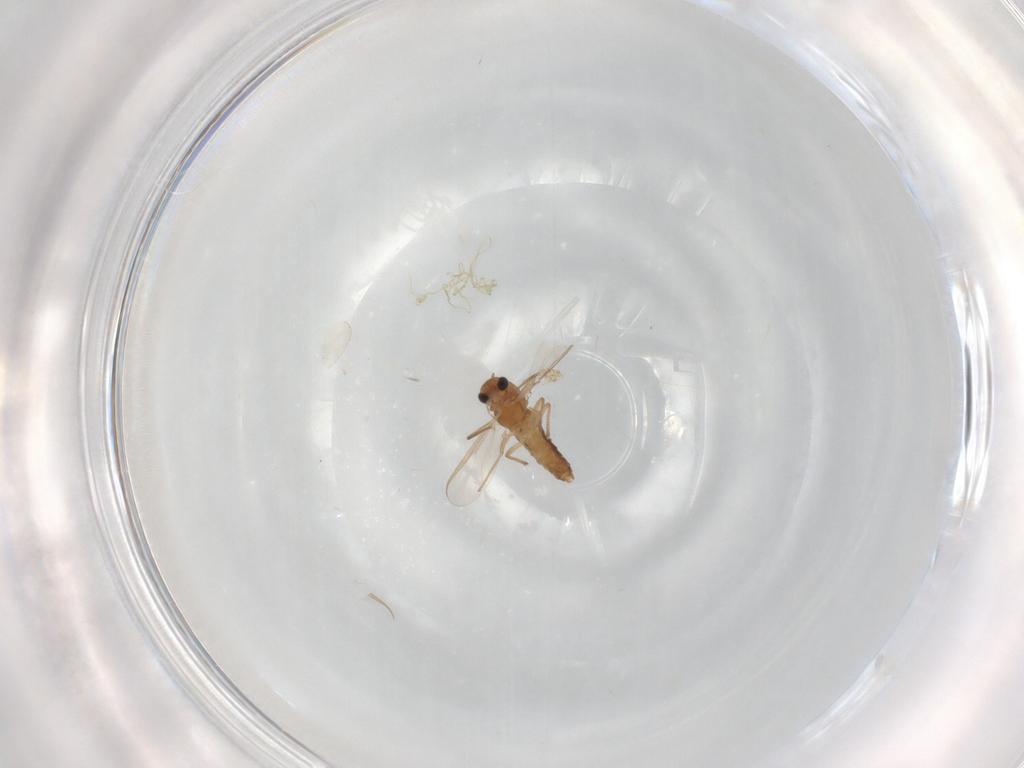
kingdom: Animalia
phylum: Arthropoda
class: Insecta
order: Diptera
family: Chironomidae
